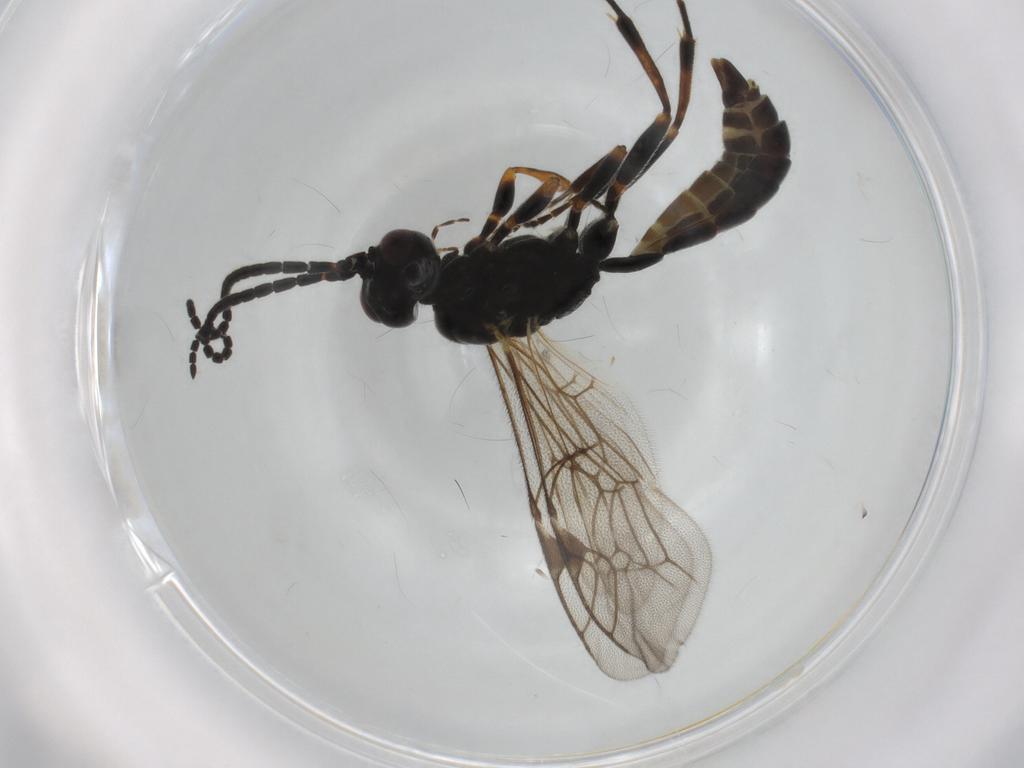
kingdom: Animalia
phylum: Arthropoda
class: Insecta
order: Hymenoptera
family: Ichneumonidae
